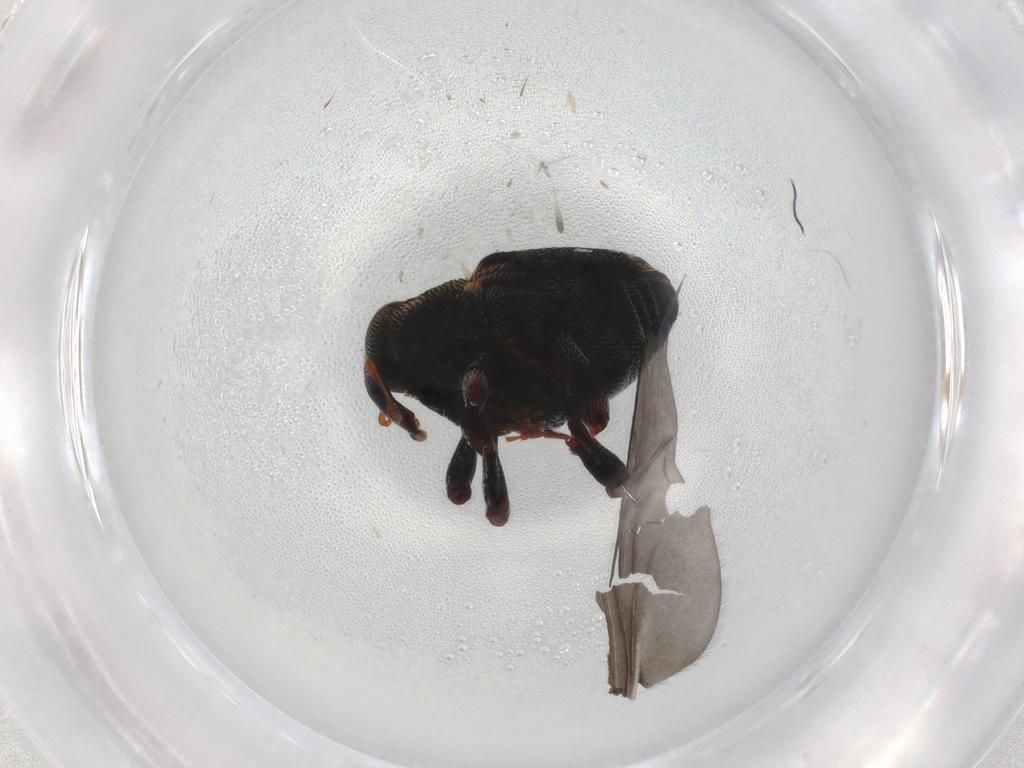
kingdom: Animalia
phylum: Arthropoda
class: Insecta
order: Coleoptera
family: Curculionidae
